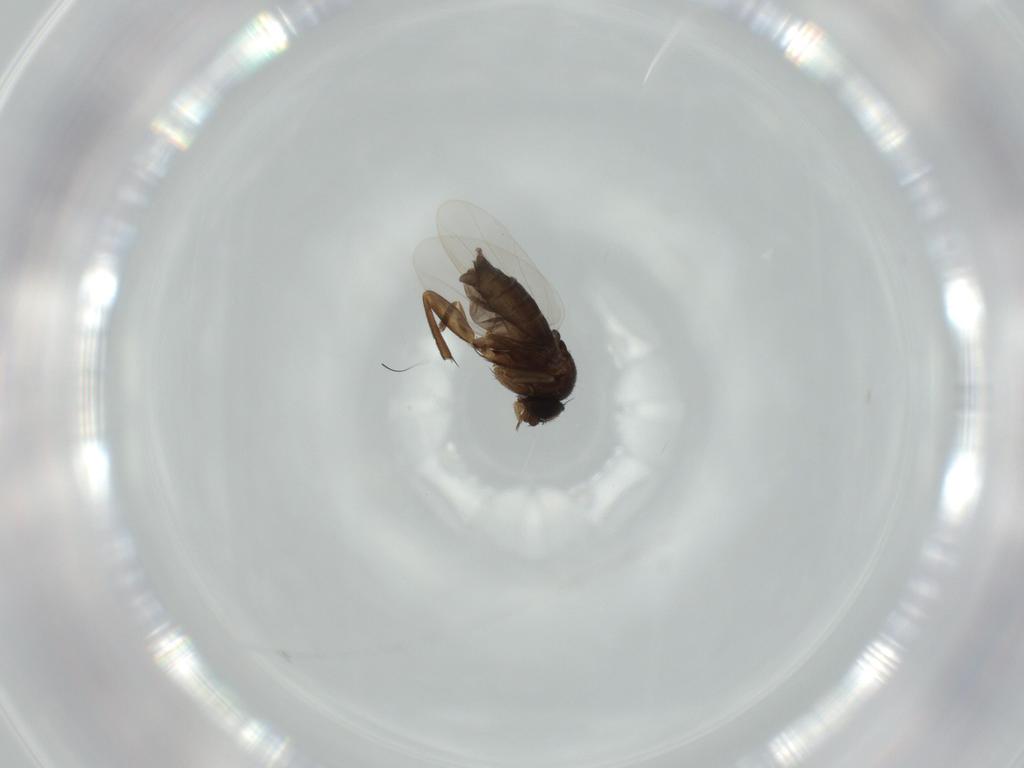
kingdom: Animalia
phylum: Arthropoda
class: Insecta
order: Diptera
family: Phoridae
